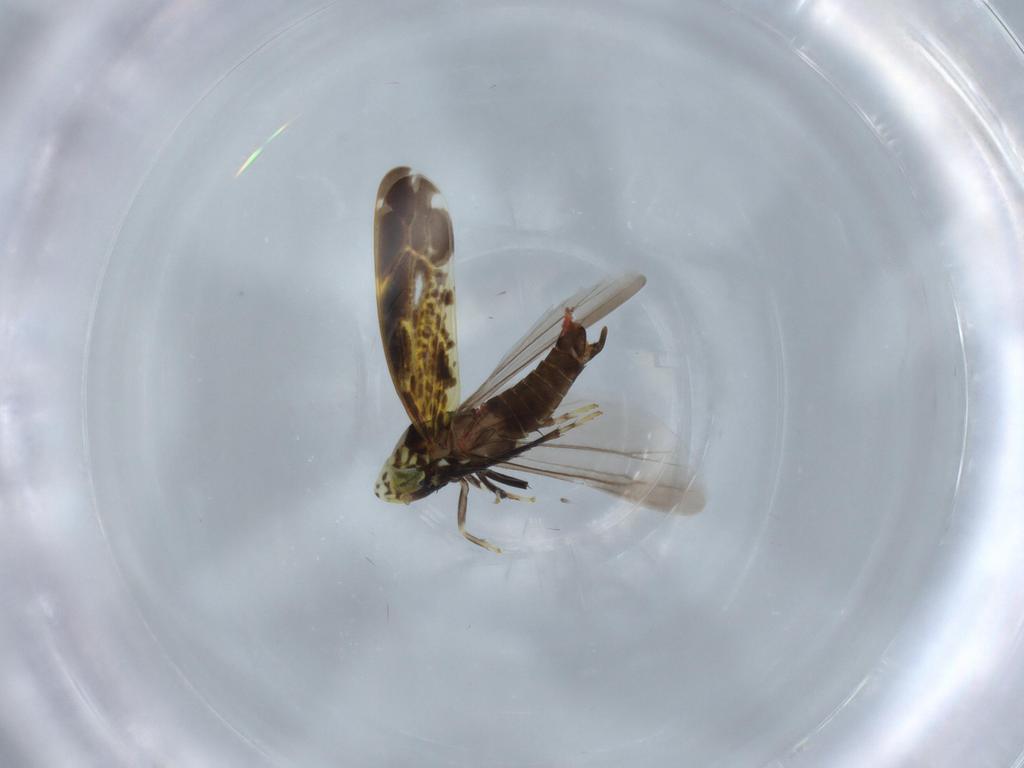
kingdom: Animalia
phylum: Arthropoda
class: Insecta
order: Hemiptera
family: Cicadellidae
